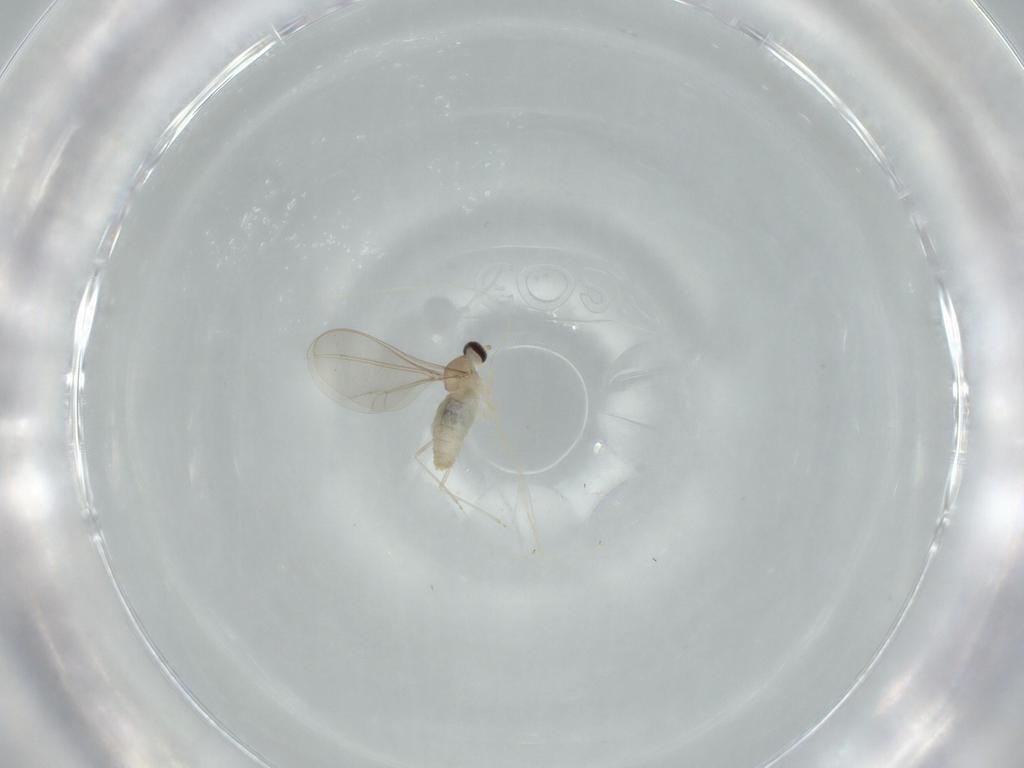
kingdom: Animalia
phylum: Arthropoda
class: Insecta
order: Diptera
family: Cecidomyiidae
